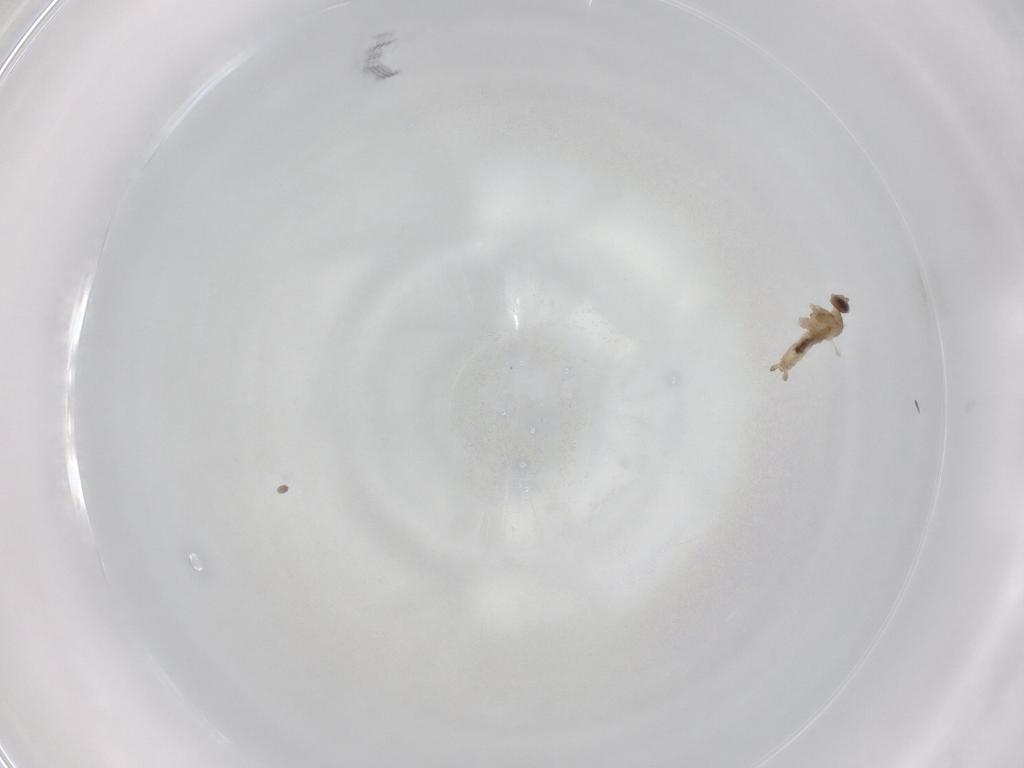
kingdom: Animalia
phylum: Arthropoda
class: Insecta
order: Diptera
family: Cecidomyiidae
